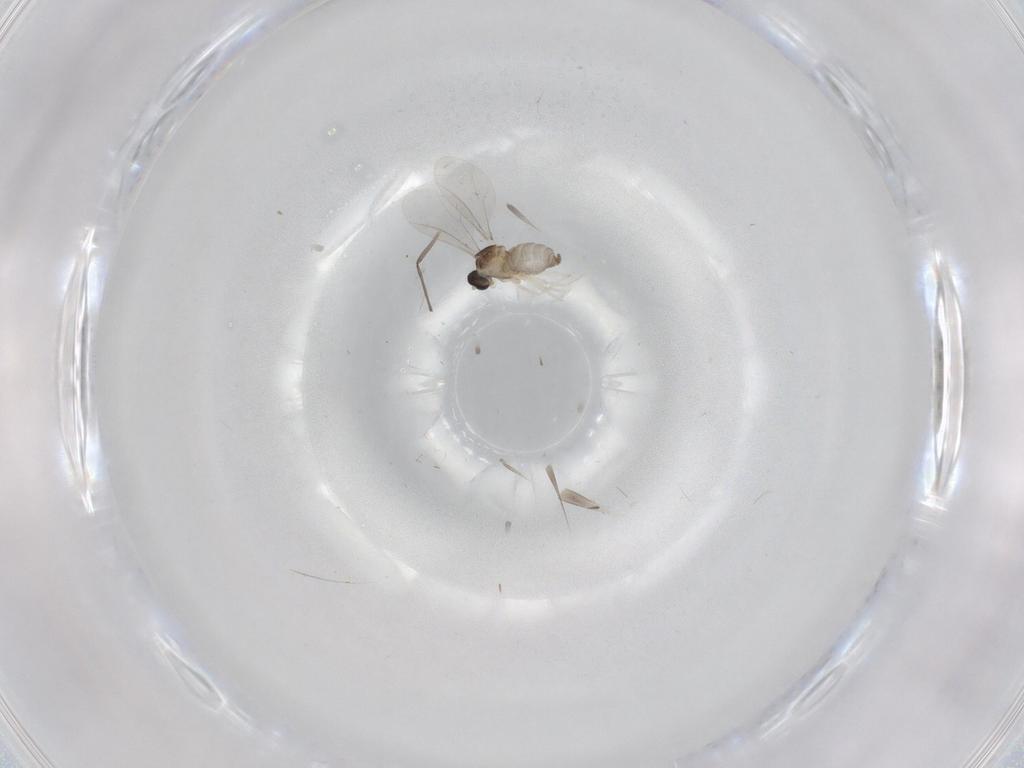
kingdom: Animalia
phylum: Arthropoda
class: Insecta
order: Diptera
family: Cecidomyiidae
